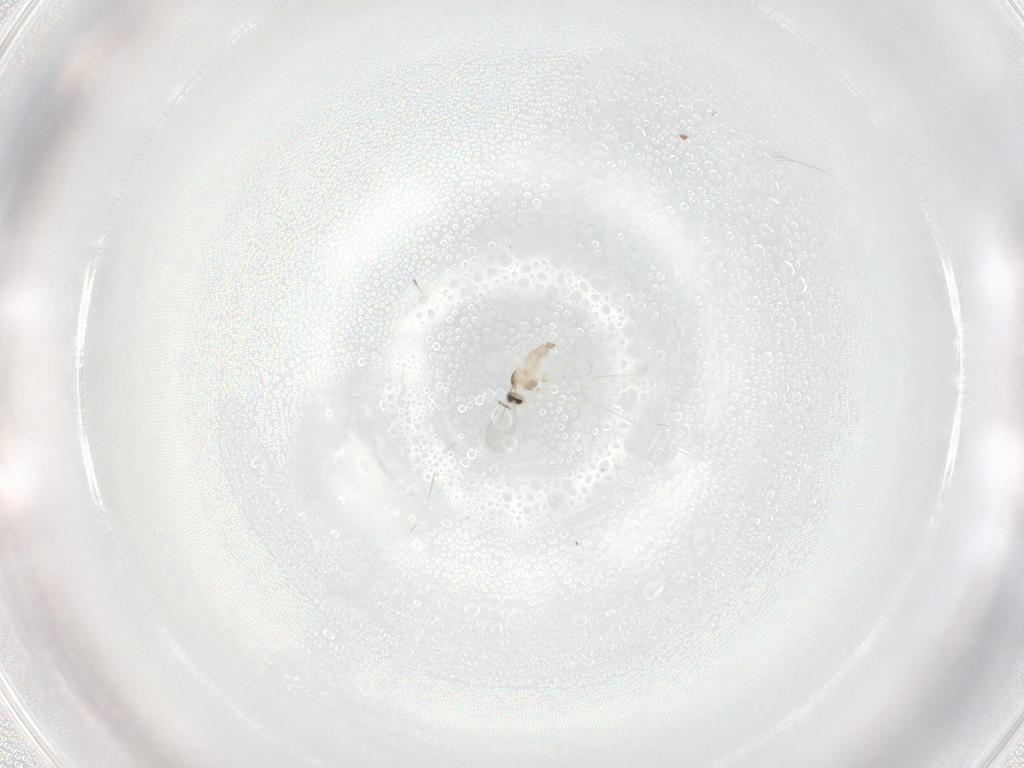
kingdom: Animalia
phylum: Arthropoda
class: Insecta
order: Diptera
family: Cecidomyiidae
